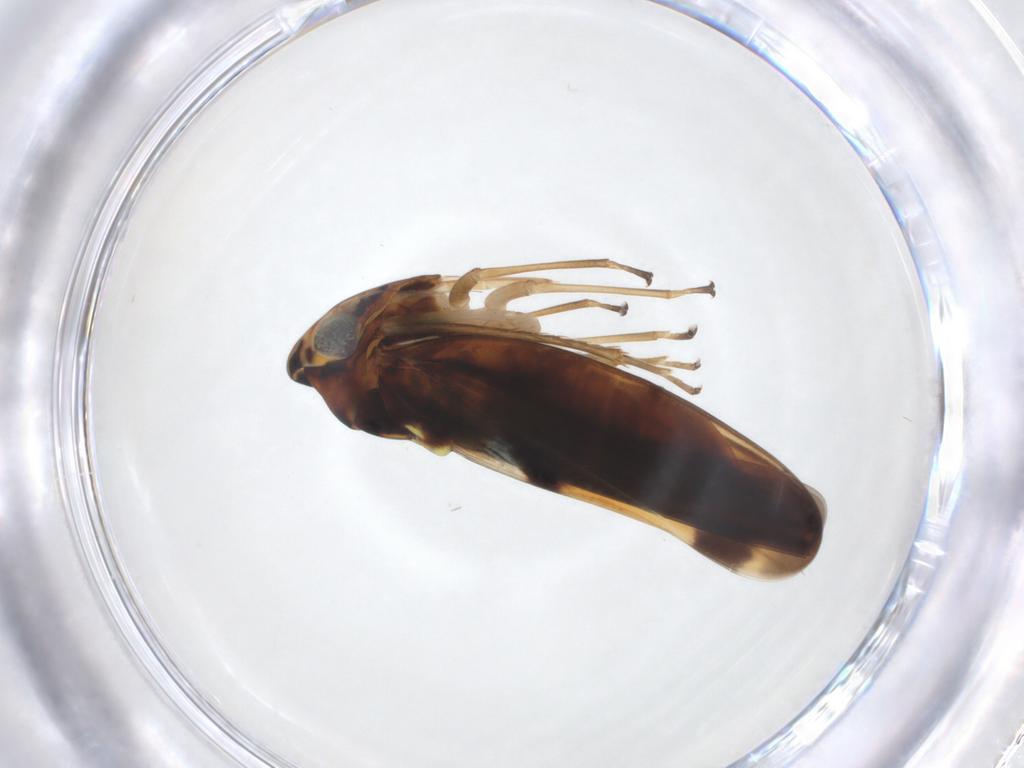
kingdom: Animalia
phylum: Arthropoda
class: Insecta
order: Hemiptera
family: Cicadellidae
